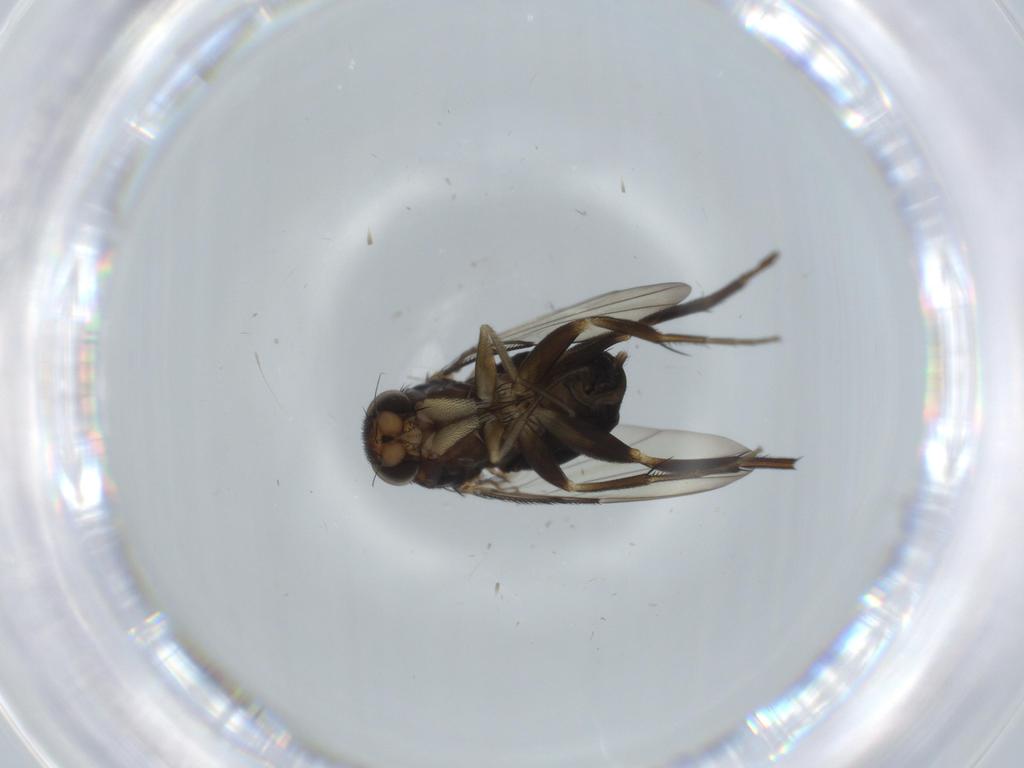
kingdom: Animalia
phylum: Arthropoda
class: Insecta
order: Diptera
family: Phoridae
